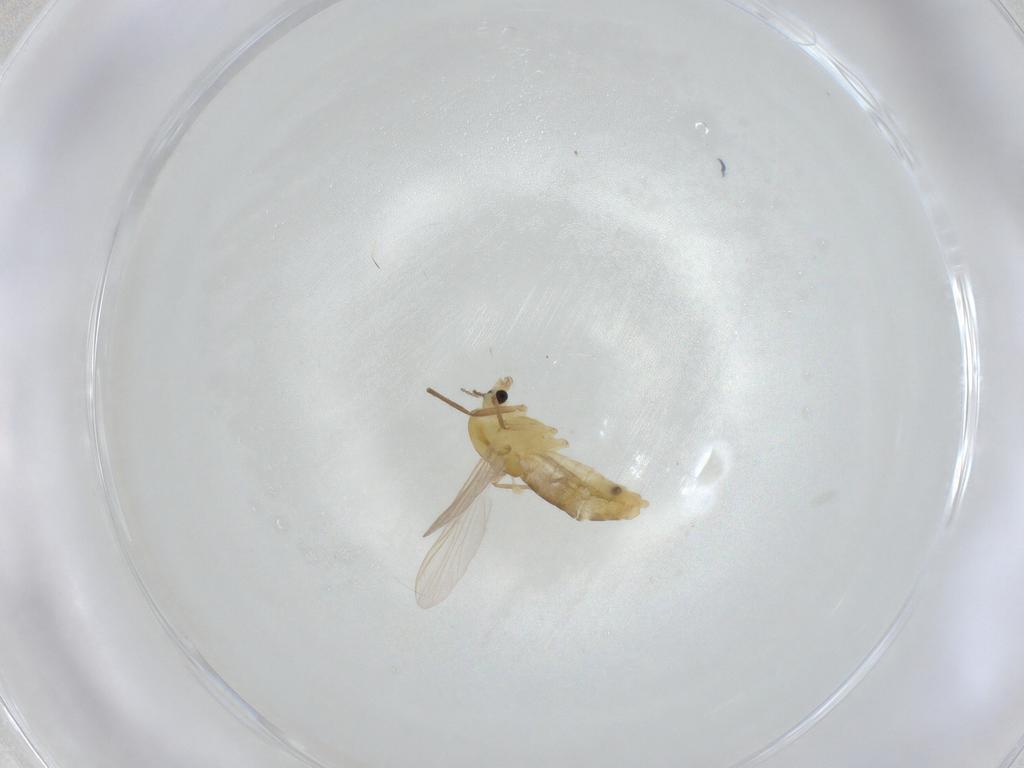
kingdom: Animalia
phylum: Arthropoda
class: Insecta
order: Diptera
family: Chironomidae
